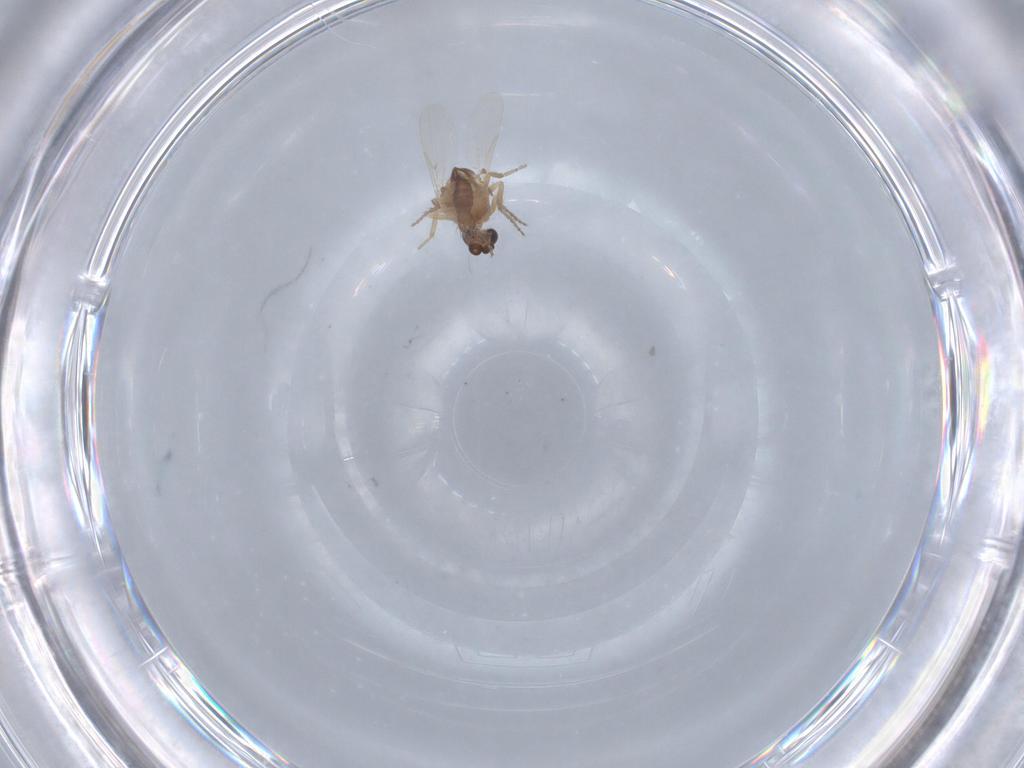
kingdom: Animalia
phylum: Arthropoda
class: Insecta
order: Diptera
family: Ceratopogonidae
